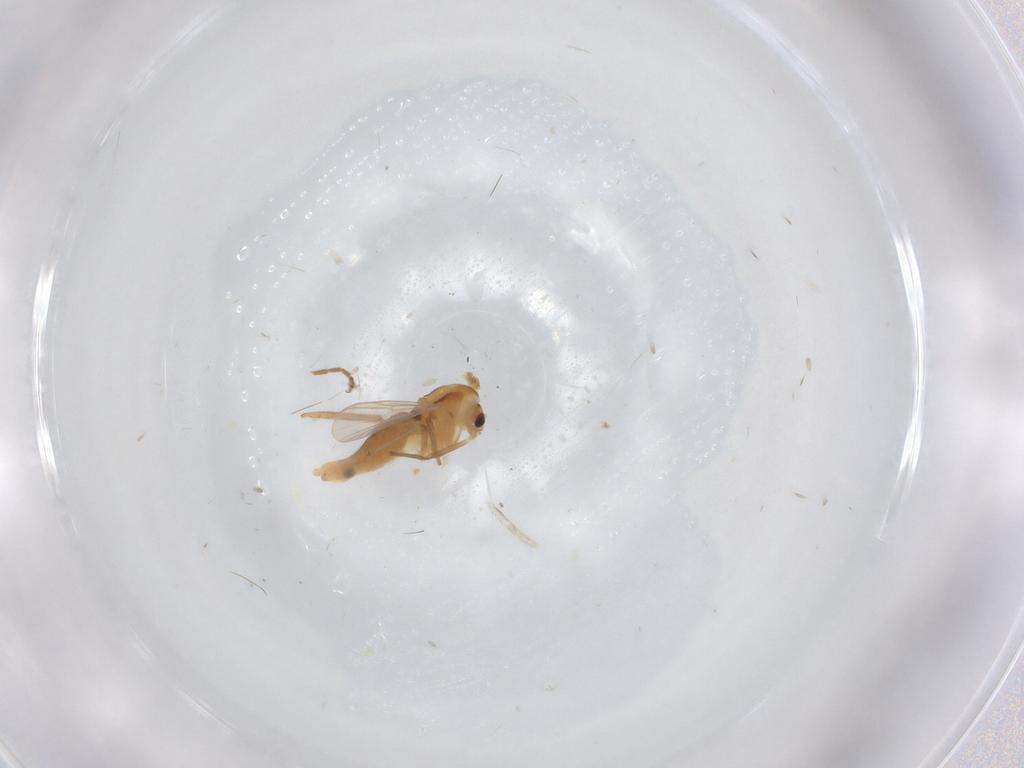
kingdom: Animalia
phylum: Arthropoda
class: Insecta
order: Diptera
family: Chironomidae
